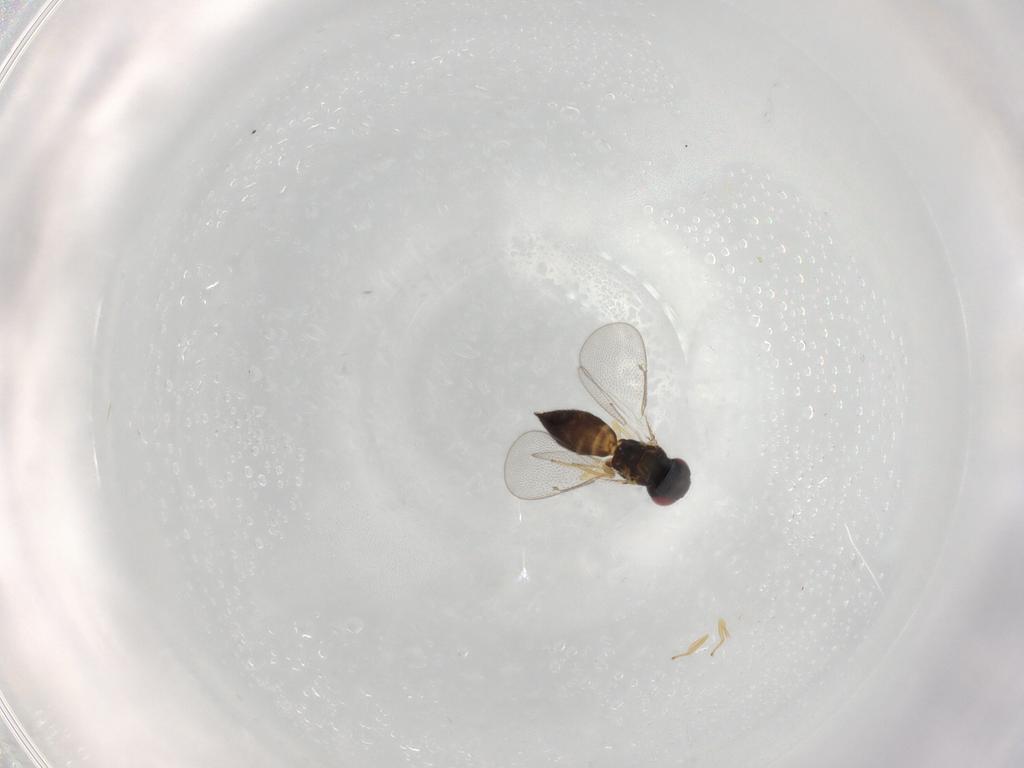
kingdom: Animalia
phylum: Arthropoda
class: Insecta
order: Hymenoptera
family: Eulophidae
